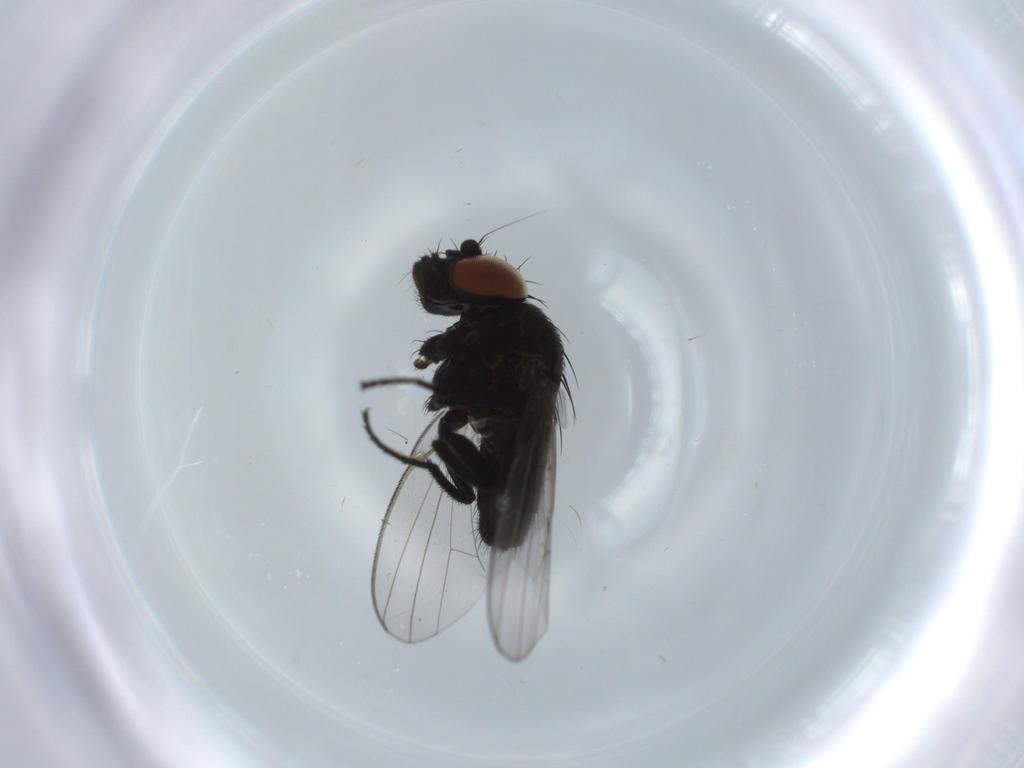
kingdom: Animalia
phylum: Arthropoda
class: Insecta
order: Diptera
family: Milichiidae
